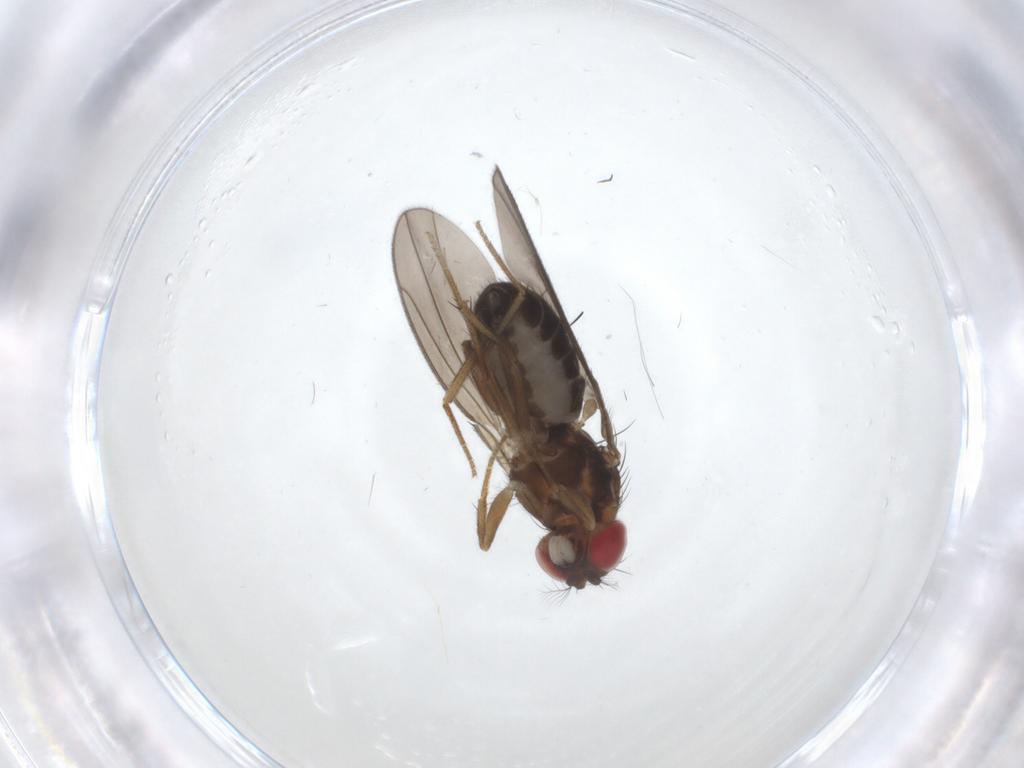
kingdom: Animalia
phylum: Arthropoda
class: Insecta
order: Diptera
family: Drosophilidae
